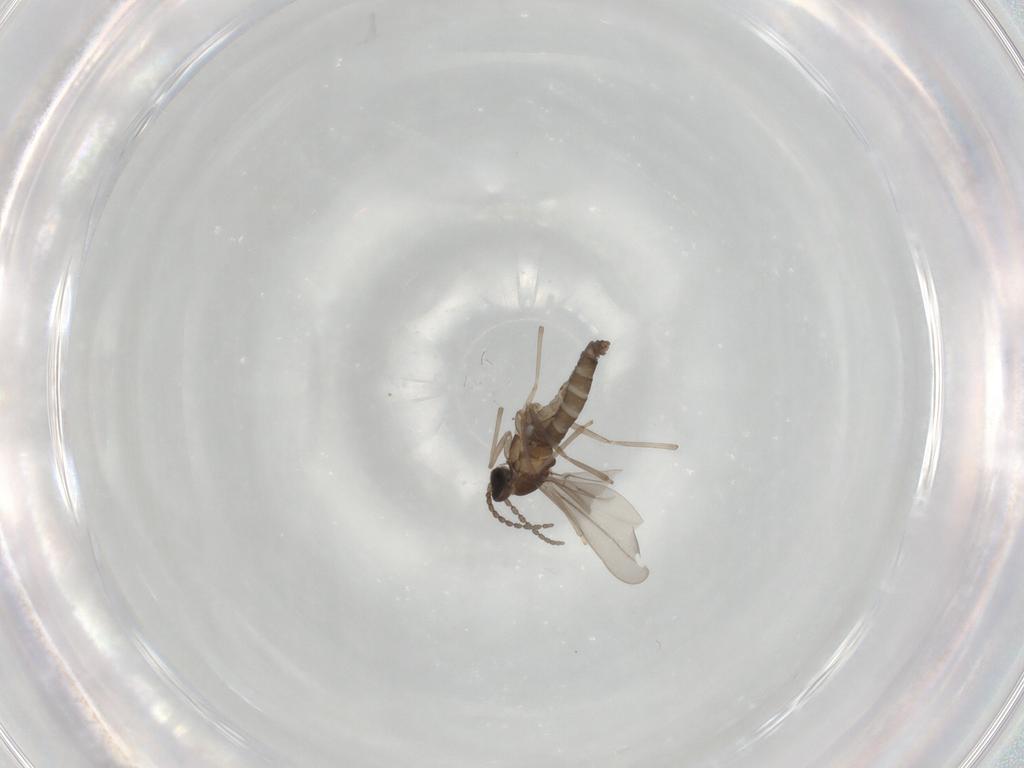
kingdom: Animalia
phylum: Arthropoda
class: Insecta
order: Diptera
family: Cecidomyiidae
